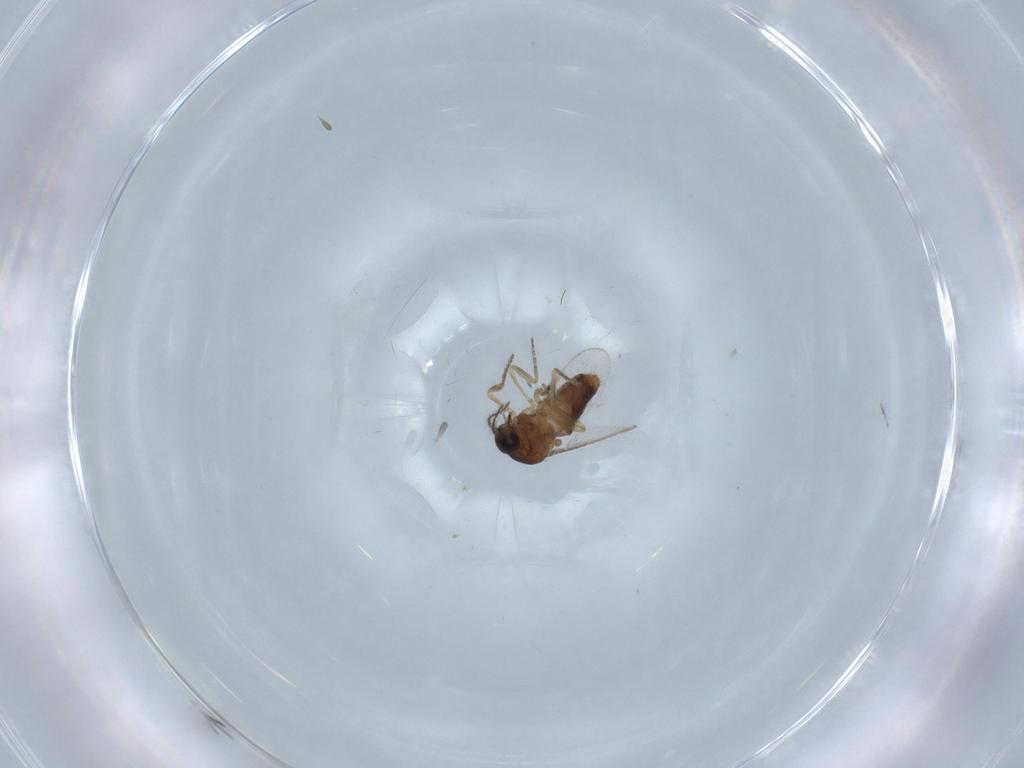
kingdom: Animalia
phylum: Arthropoda
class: Insecta
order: Diptera
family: Ceratopogonidae
